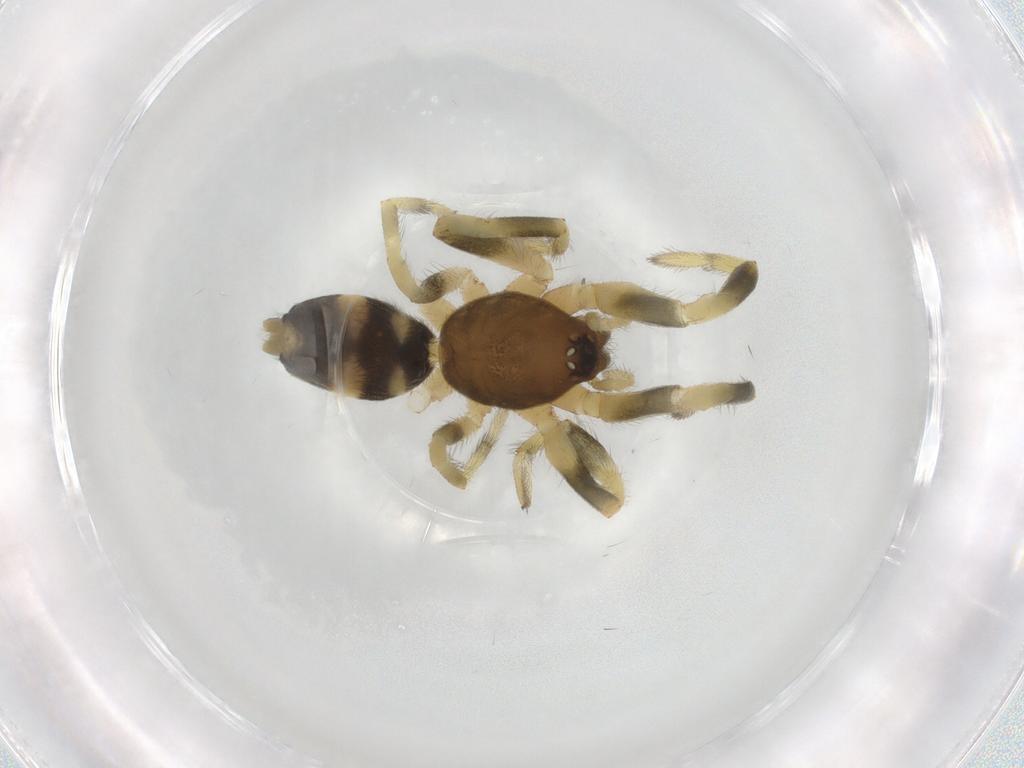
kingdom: Animalia
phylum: Arthropoda
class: Arachnida
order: Araneae
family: Lamponidae
